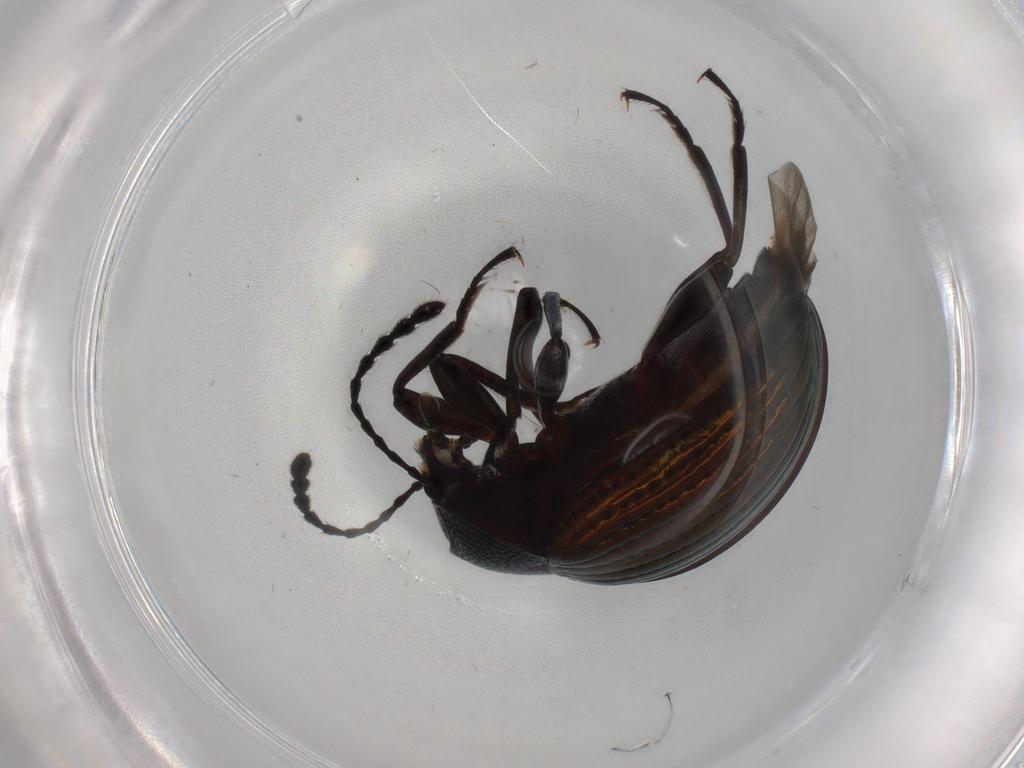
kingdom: Animalia
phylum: Arthropoda
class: Insecta
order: Coleoptera
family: Tenebrionidae
